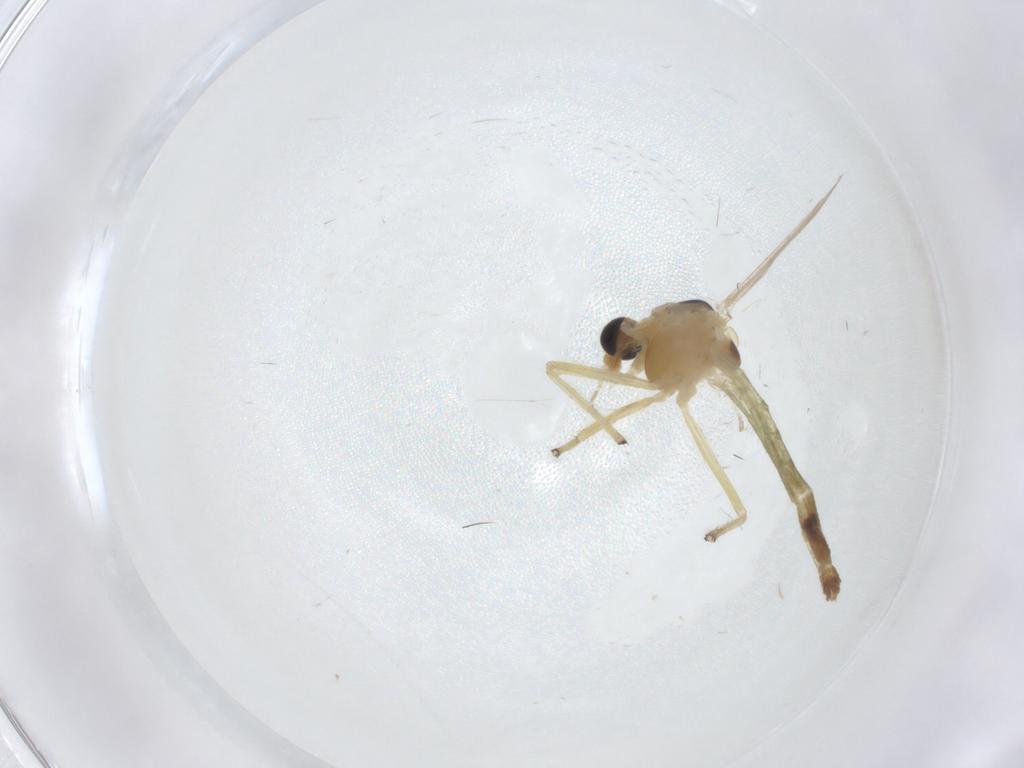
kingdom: Animalia
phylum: Arthropoda
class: Insecta
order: Diptera
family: Chironomidae
